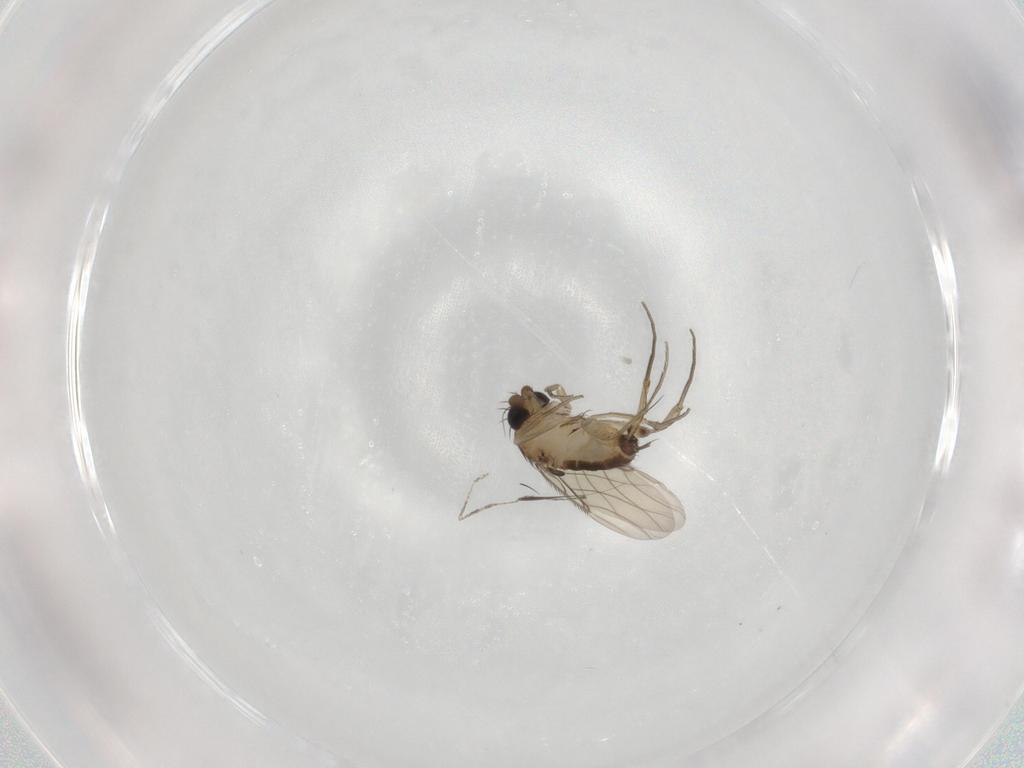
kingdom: Animalia
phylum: Arthropoda
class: Insecta
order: Diptera
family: Phoridae
